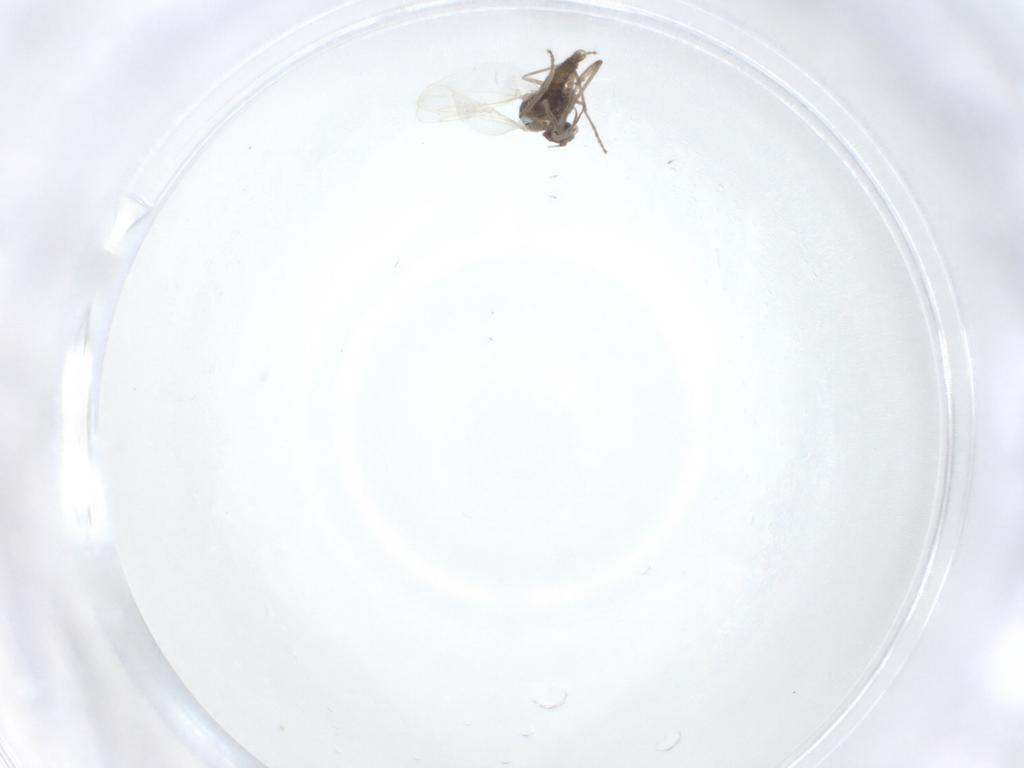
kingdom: Animalia
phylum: Arthropoda
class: Insecta
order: Diptera
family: Cecidomyiidae
